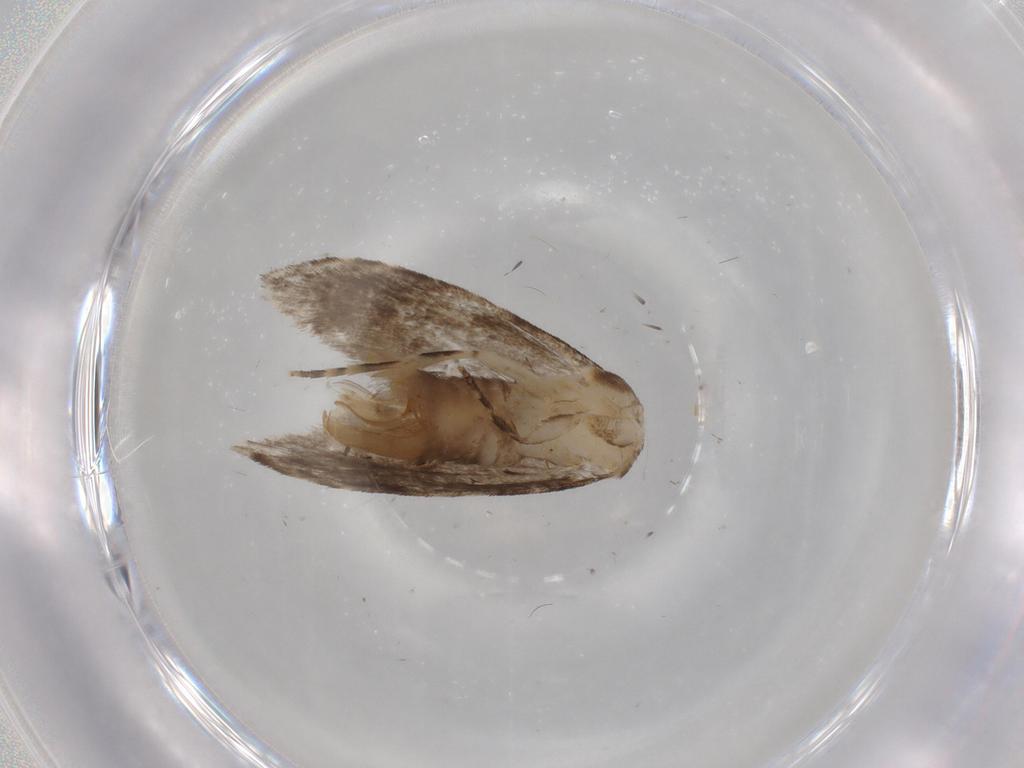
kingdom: Animalia
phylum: Arthropoda
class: Insecta
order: Lepidoptera
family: Tineidae
